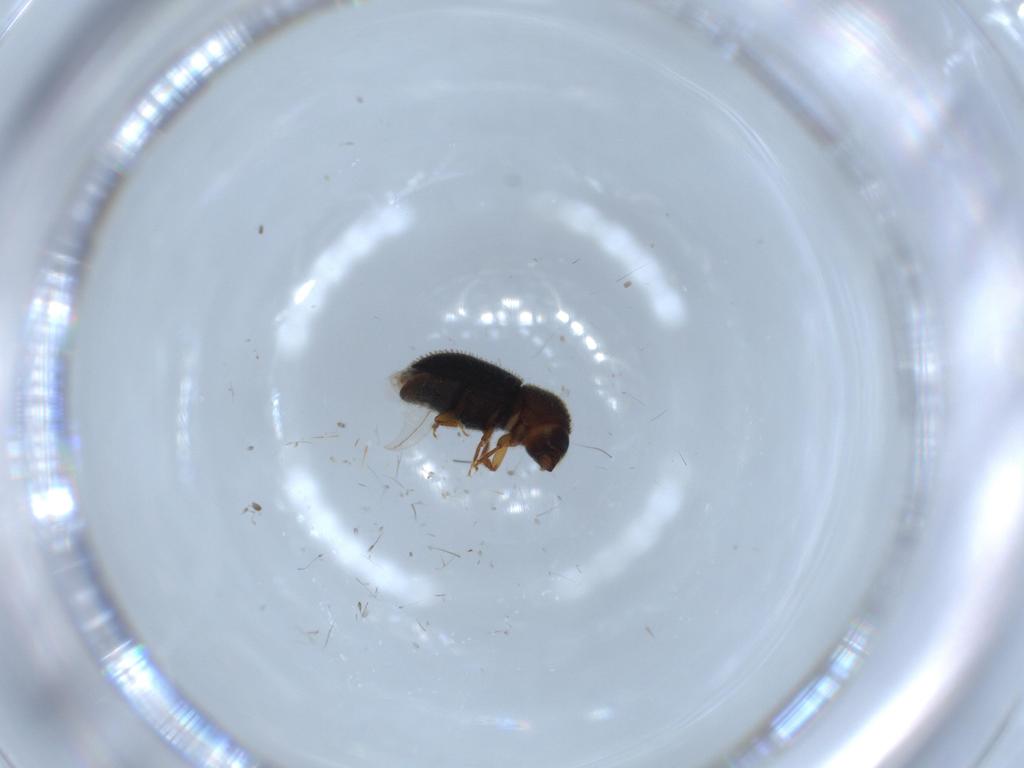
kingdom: Animalia
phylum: Arthropoda
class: Insecta
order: Coleoptera
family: Curculionidae
